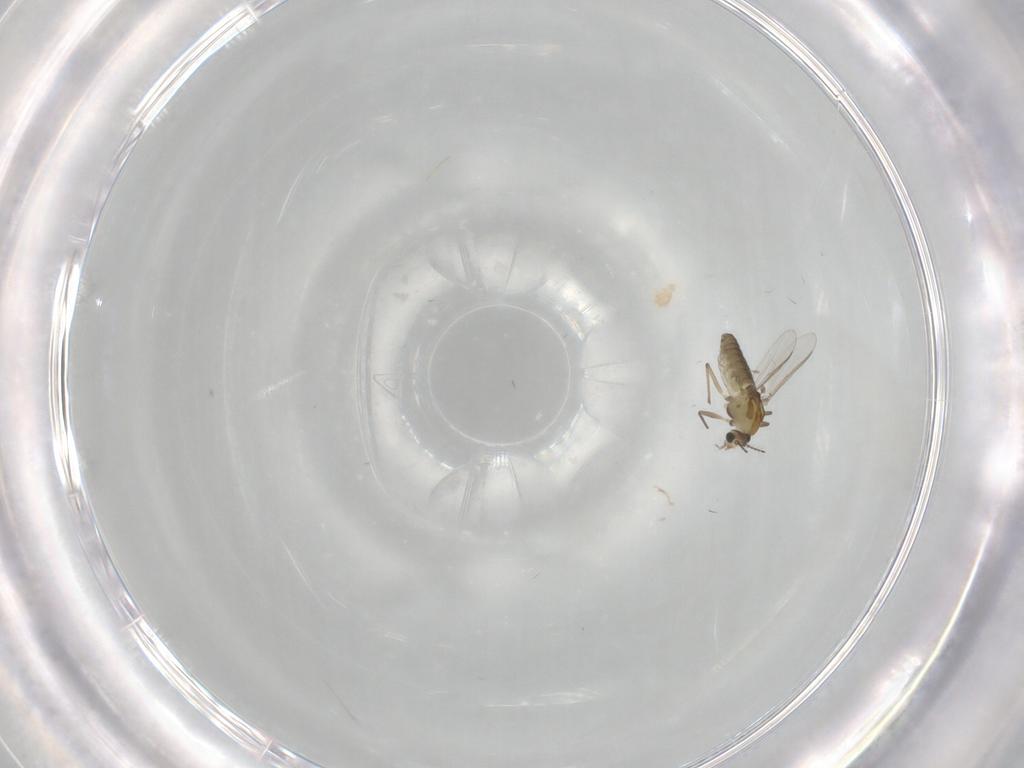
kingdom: Animalia
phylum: Arthropoda
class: Insecta
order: Diptera
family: Chironomidae
